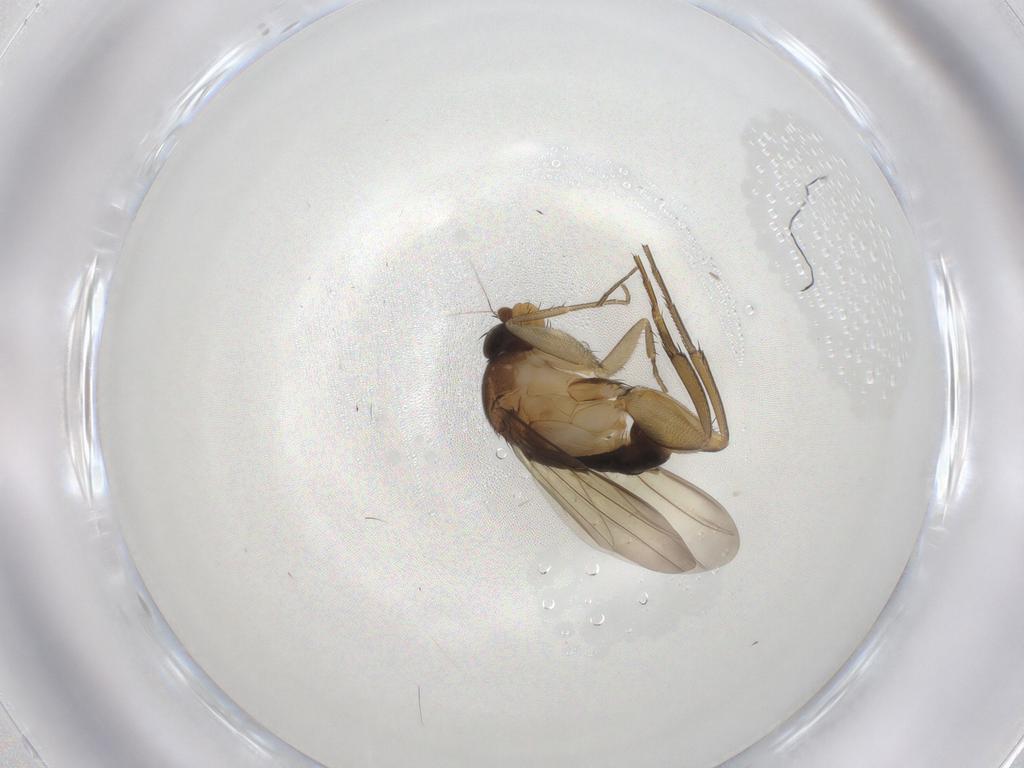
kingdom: Animalia
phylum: Arthropoda
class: Insecta
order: Diptera
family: Phoridae
